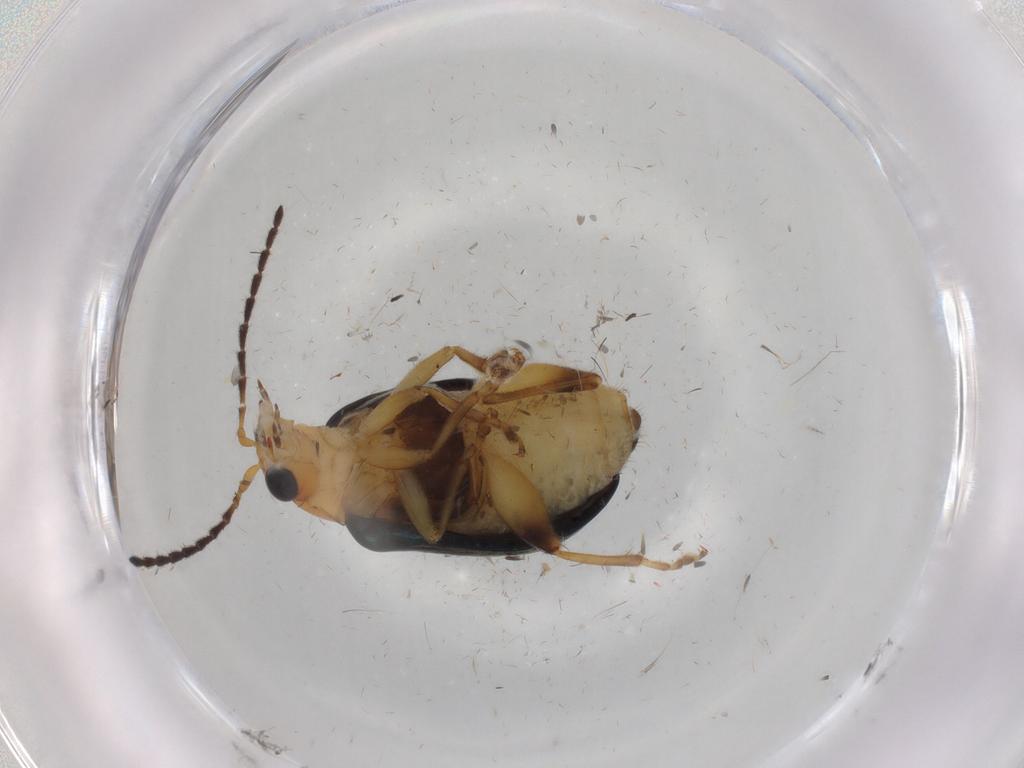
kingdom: Animalia
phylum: Arthropoda
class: Insecta
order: Coleoptera
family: Chrysomelidae
